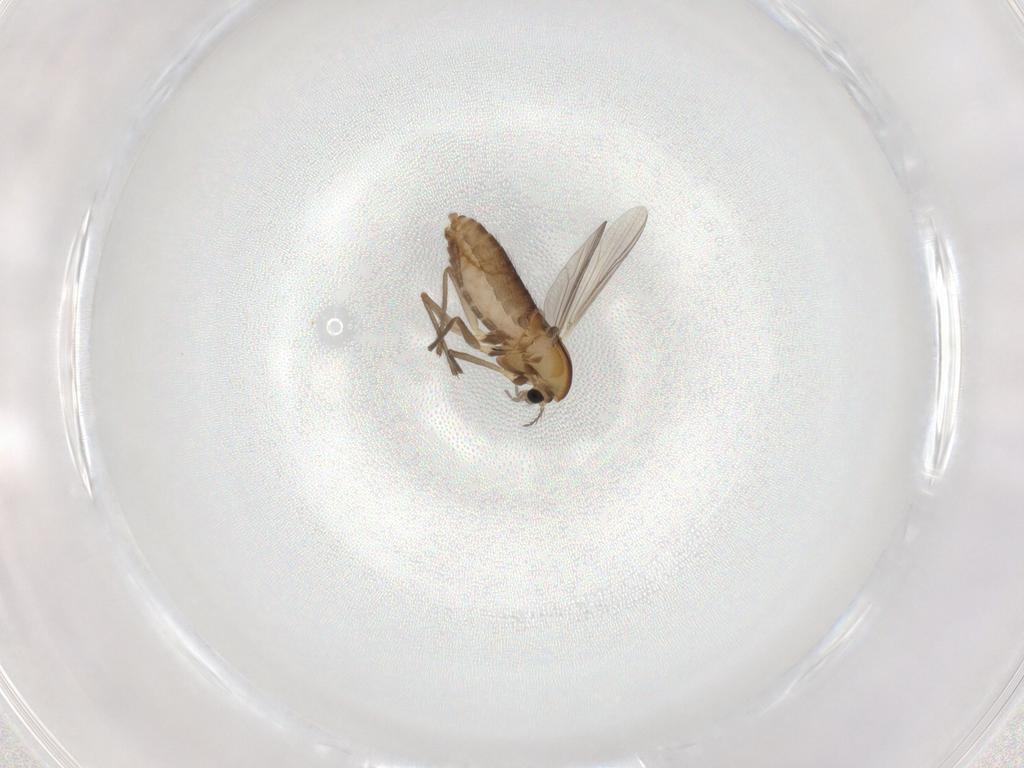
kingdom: Animalia
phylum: Arthropoda
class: Insecta
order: Diptera
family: Chironomidae
